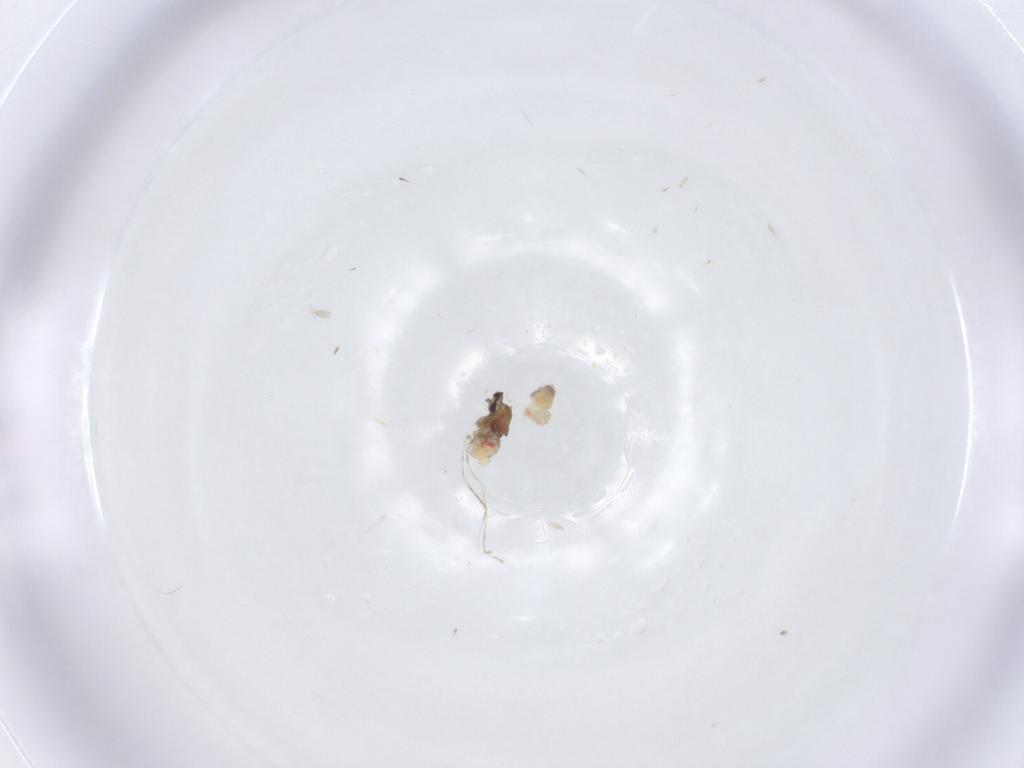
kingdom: Animalia
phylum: Arthropoda
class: Insecta
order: Diptera
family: Cecidomyiidae
